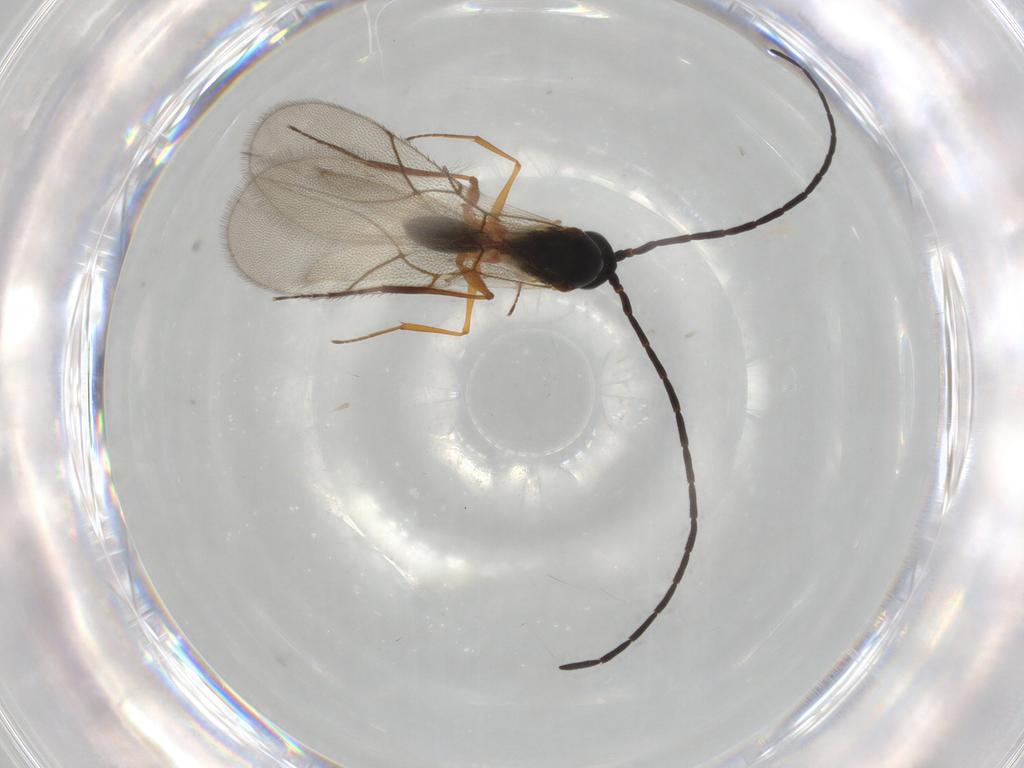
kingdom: Animalia
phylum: Arthropoda
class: Insecta
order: Hymenoptera
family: Figitidae
